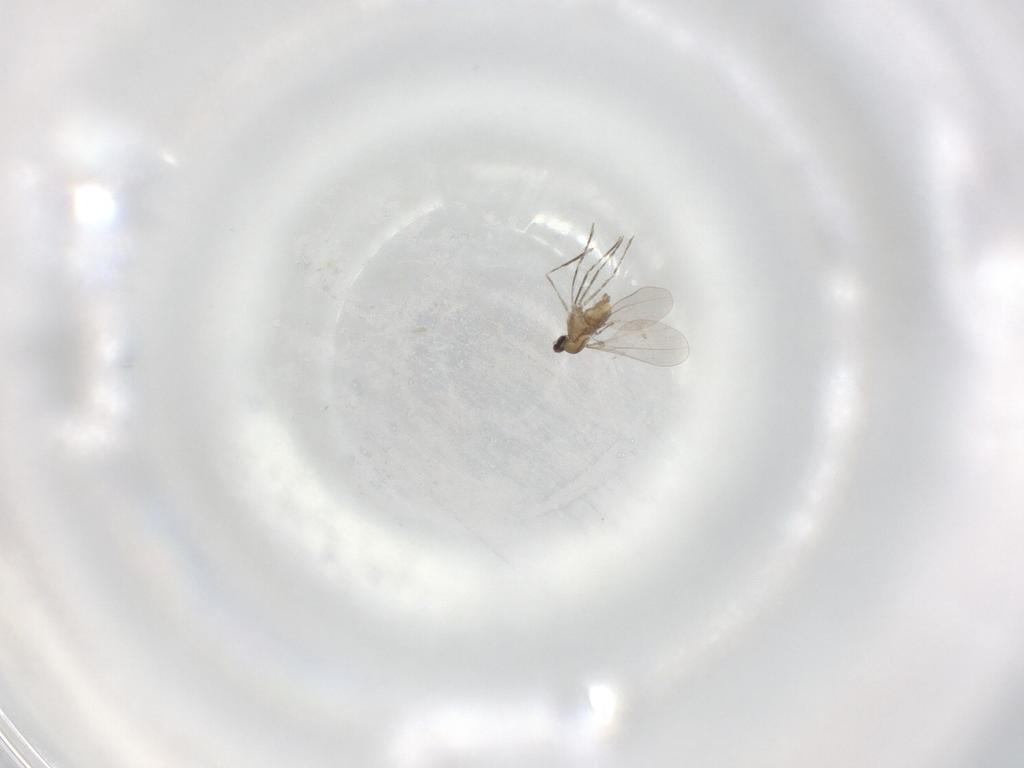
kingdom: Animalia
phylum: Arthropoda
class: Insecta
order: Diptera
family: Cecidomyiidae
